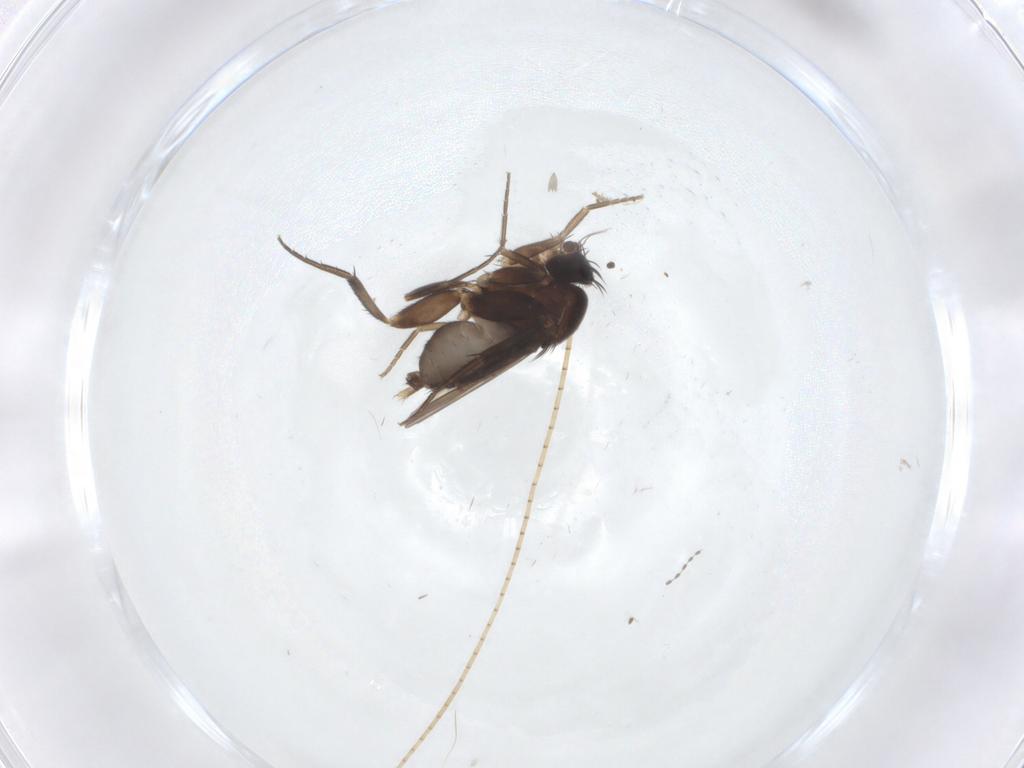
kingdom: Animalia
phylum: Arthropoda
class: Insecta
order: Diptera
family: Phoridae
